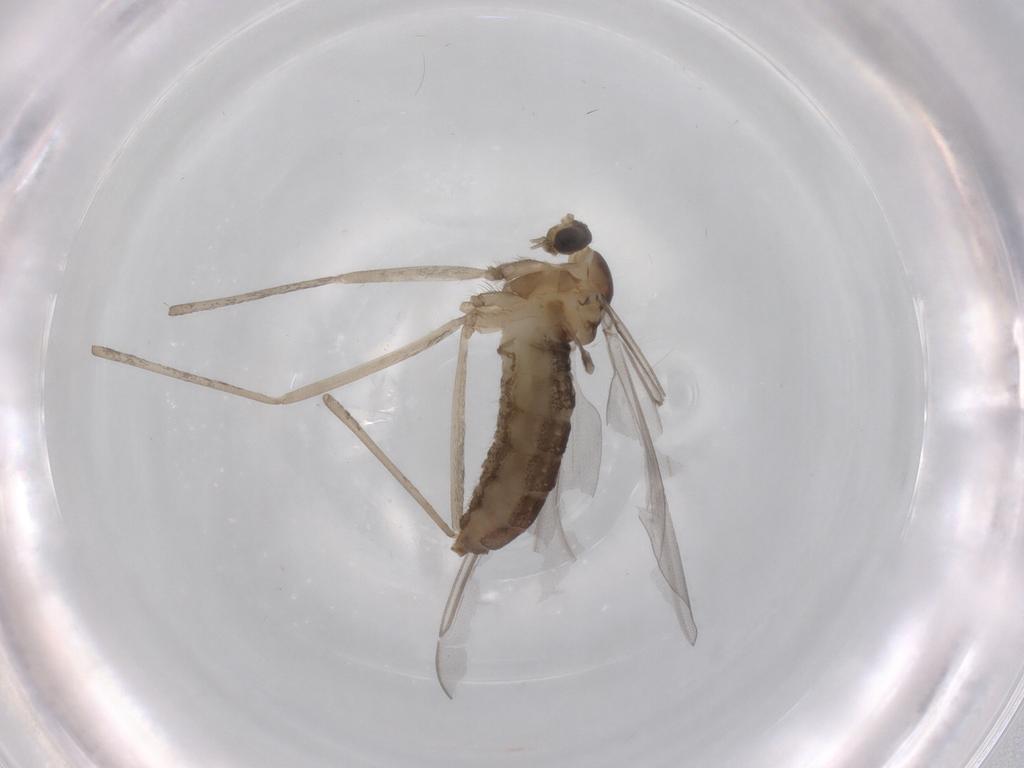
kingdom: Animalia
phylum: Arthropoda
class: Insecta
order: Diptera
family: Cecidomyiidae
